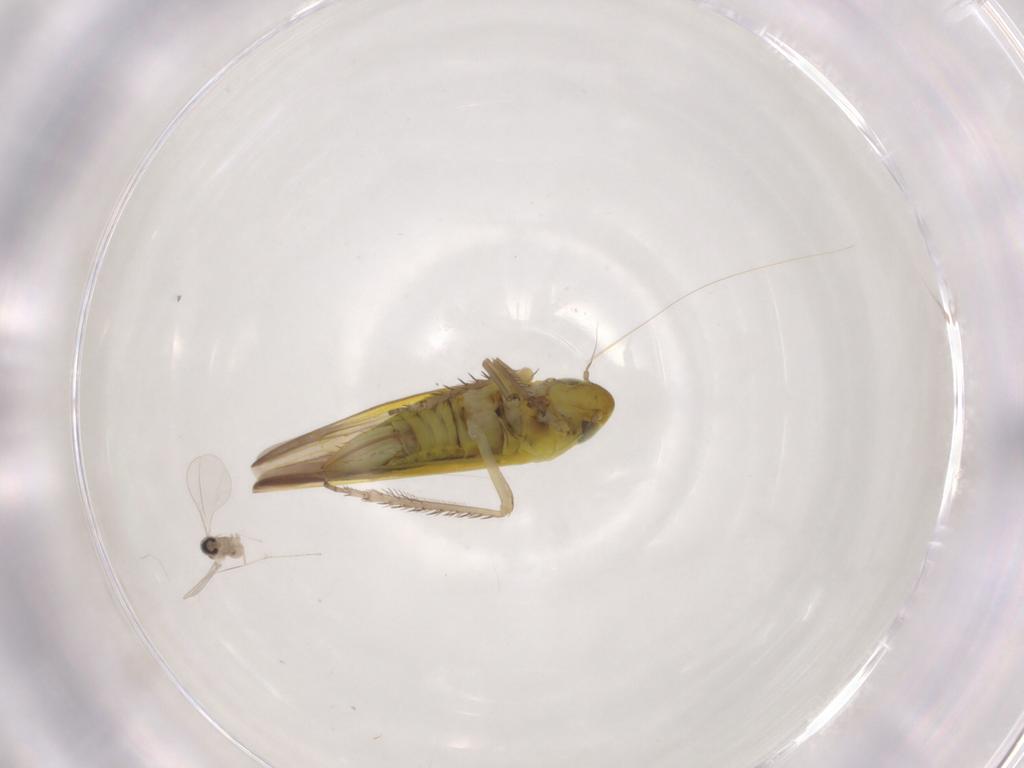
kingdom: Animalia
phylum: Arthropoda
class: Insecta
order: Hemiptera
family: Cicadellidae
